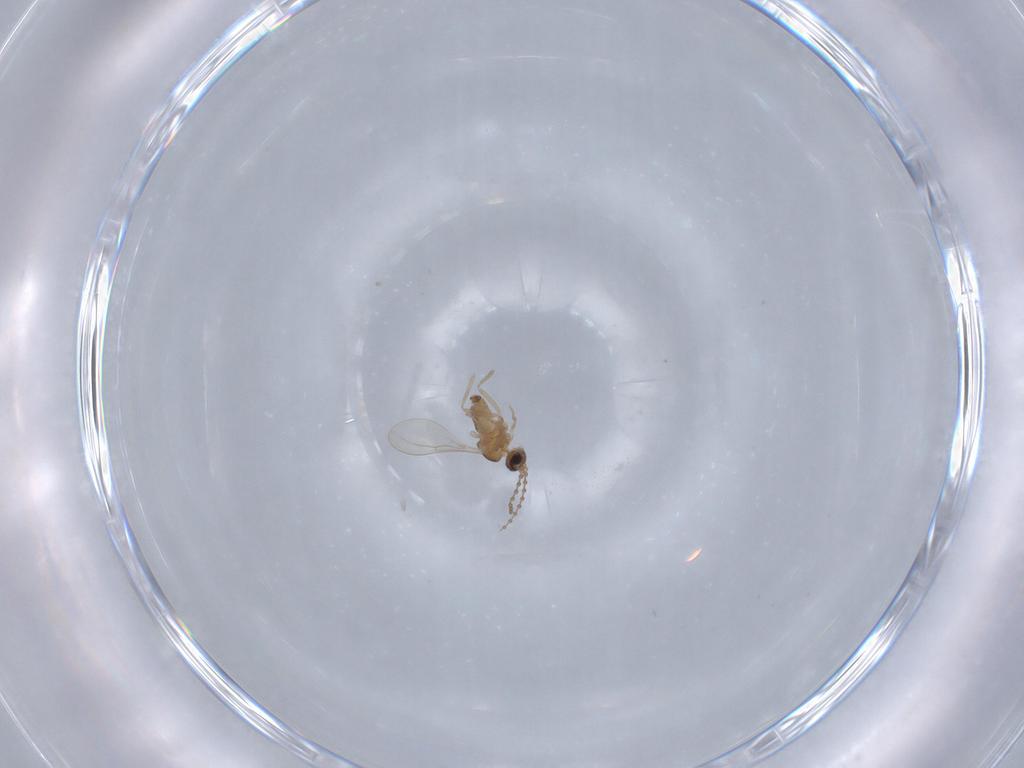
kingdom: Animalia
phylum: Arthropoda
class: Insecta
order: Diptera
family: Cecidomyiidae
